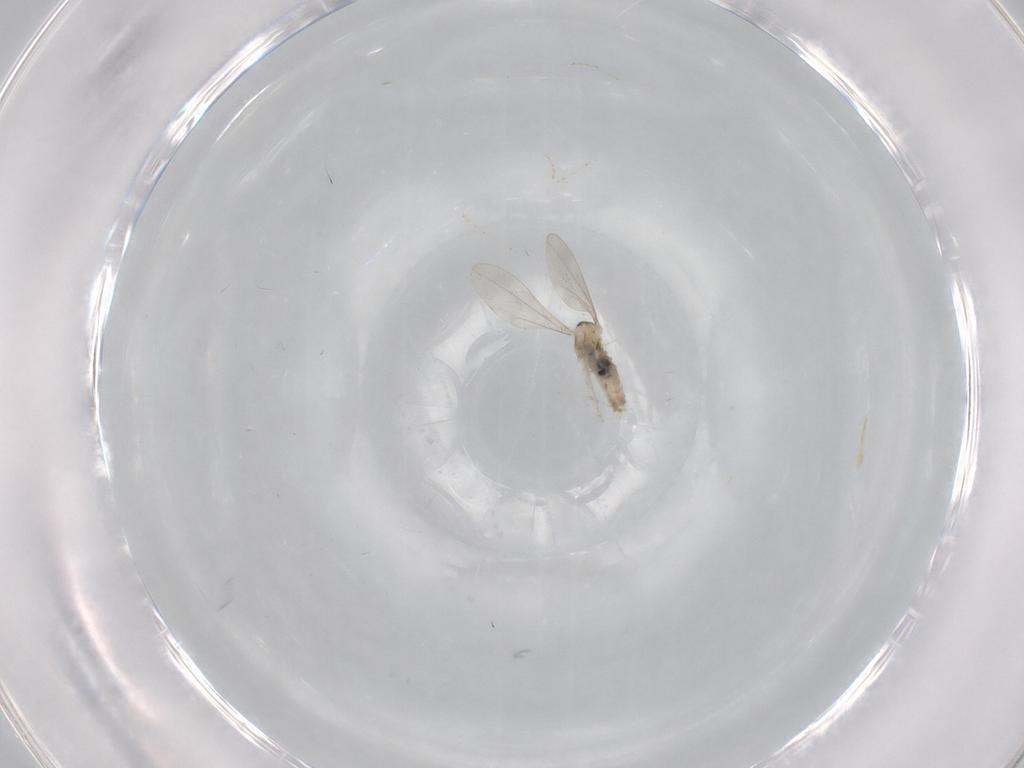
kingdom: Animalia
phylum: Arthropoda
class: Insecta
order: Diptera
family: Cecidomyiidae
